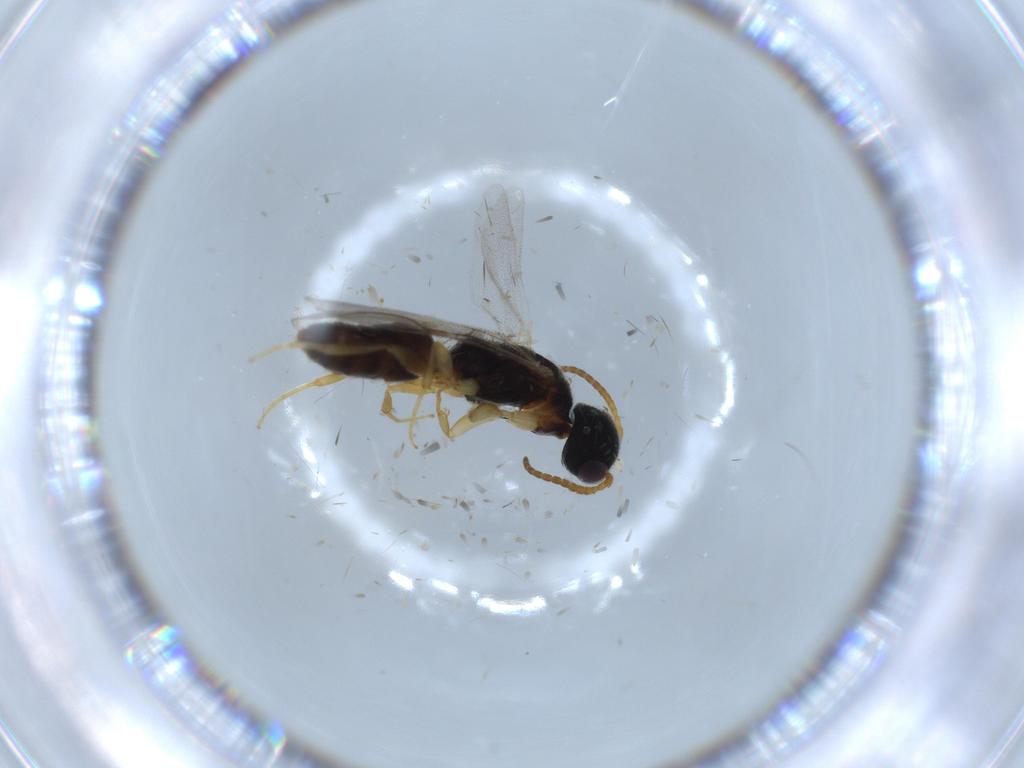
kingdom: Animalia
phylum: Arthropoda
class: Insecta
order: Hymenoptera
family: Bethylidae
